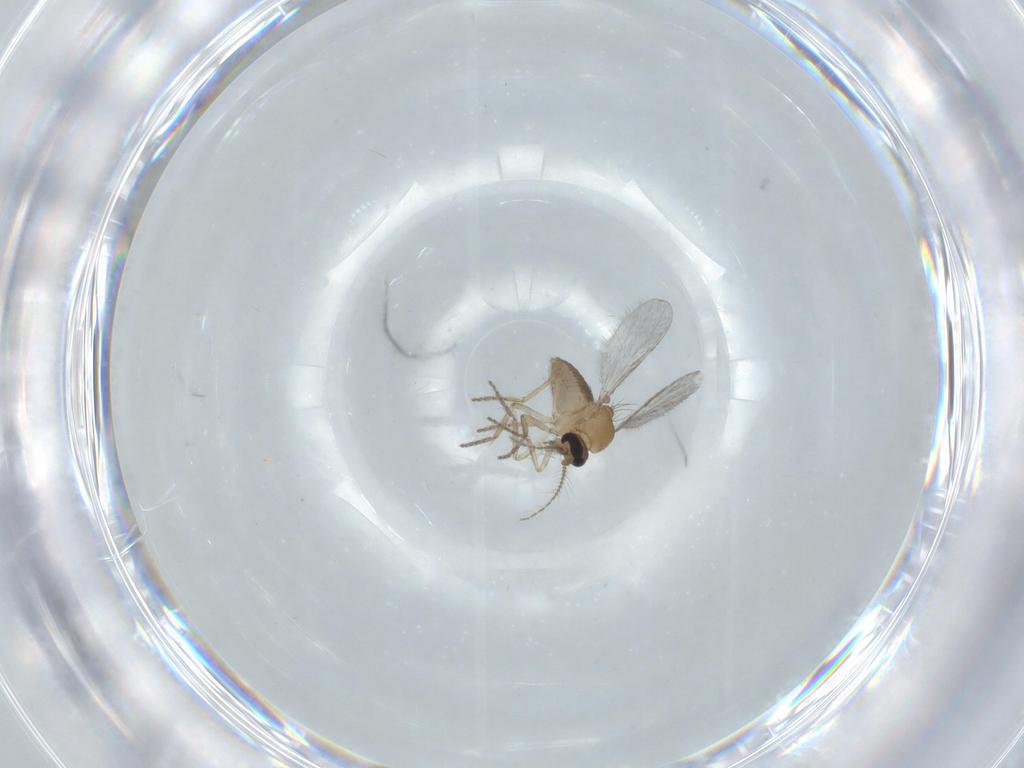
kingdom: Animalia
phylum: Arthropoda
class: Insecta
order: Diptera
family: Ceratopogonidae
